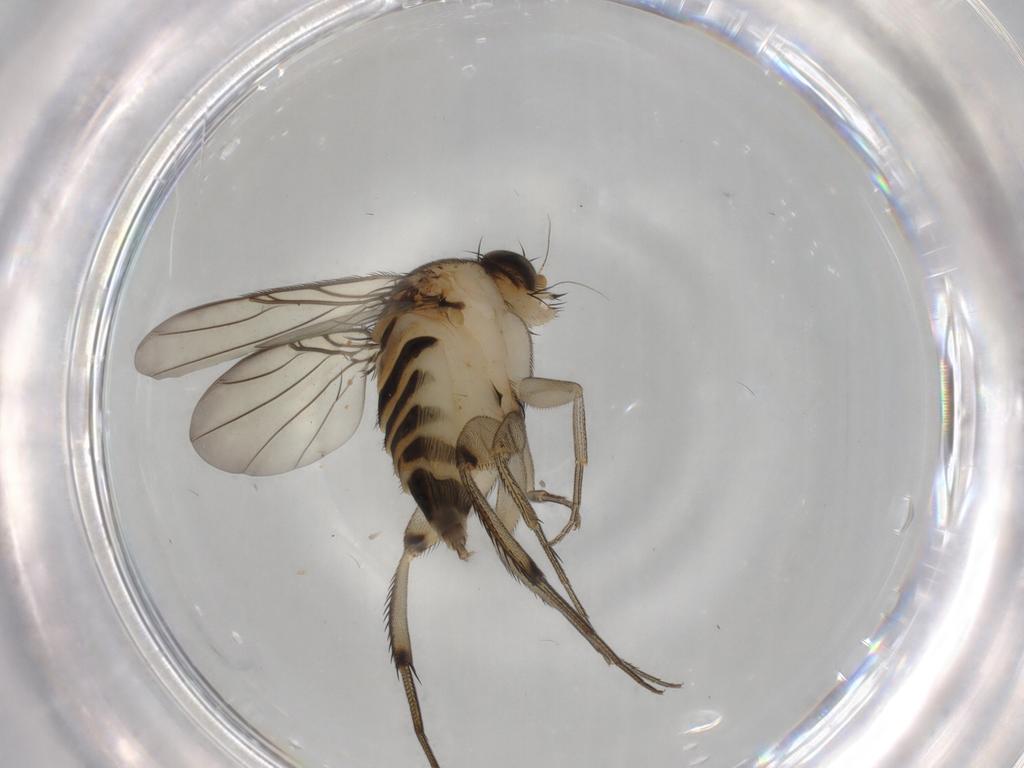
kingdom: Animalia
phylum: Arthropoda
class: Insecta
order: Diptera
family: Phoridae
